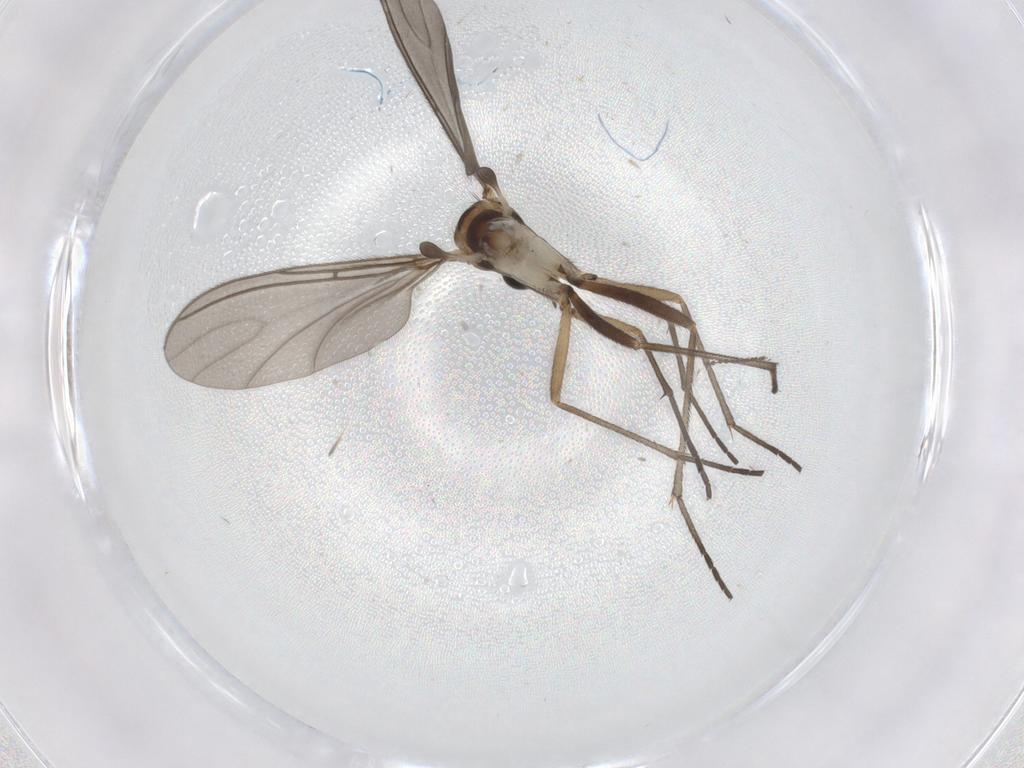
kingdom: Animalia
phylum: Arthropoda
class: Insecta
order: Diptera
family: Sciaridae
